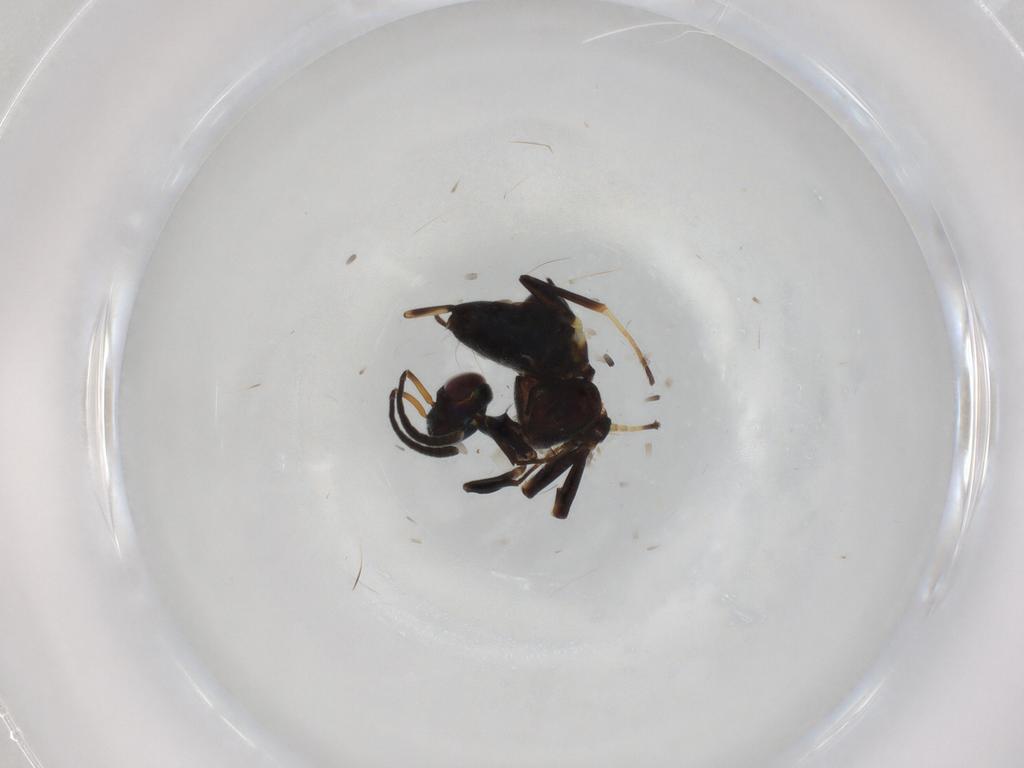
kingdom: Animalia
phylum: Arthropoda
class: Insecta
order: Hymenoptera
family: Eupelmidae
